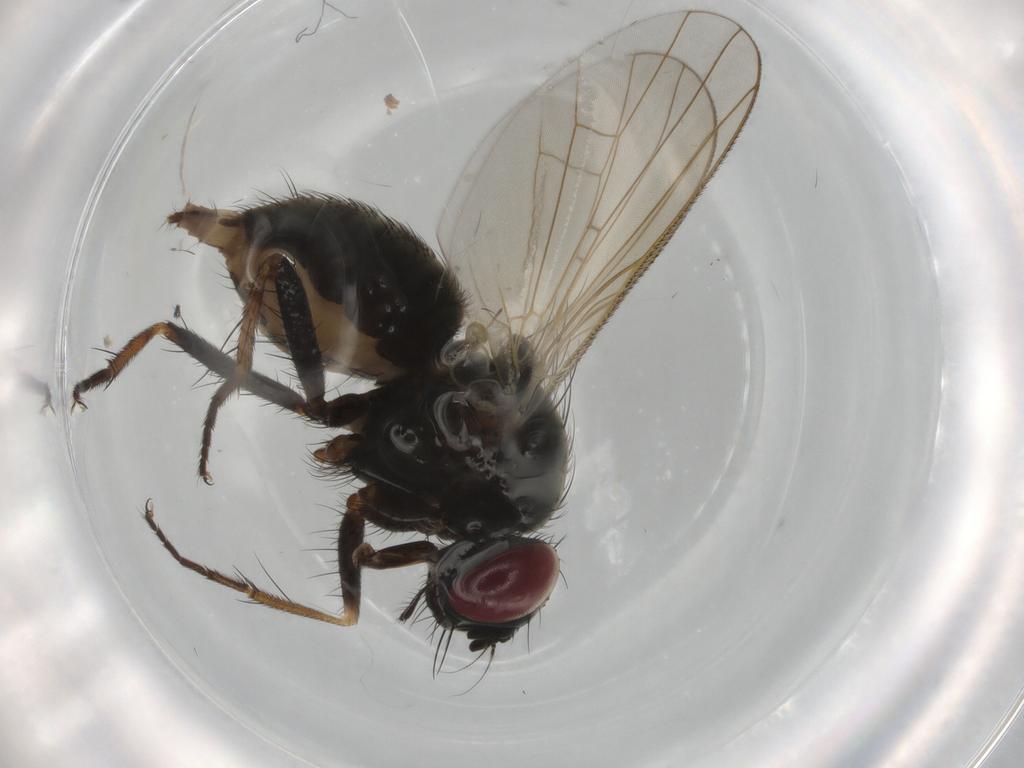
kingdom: Animalia
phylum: Arthropoda
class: Insecta
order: Diptera
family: Muscidae
